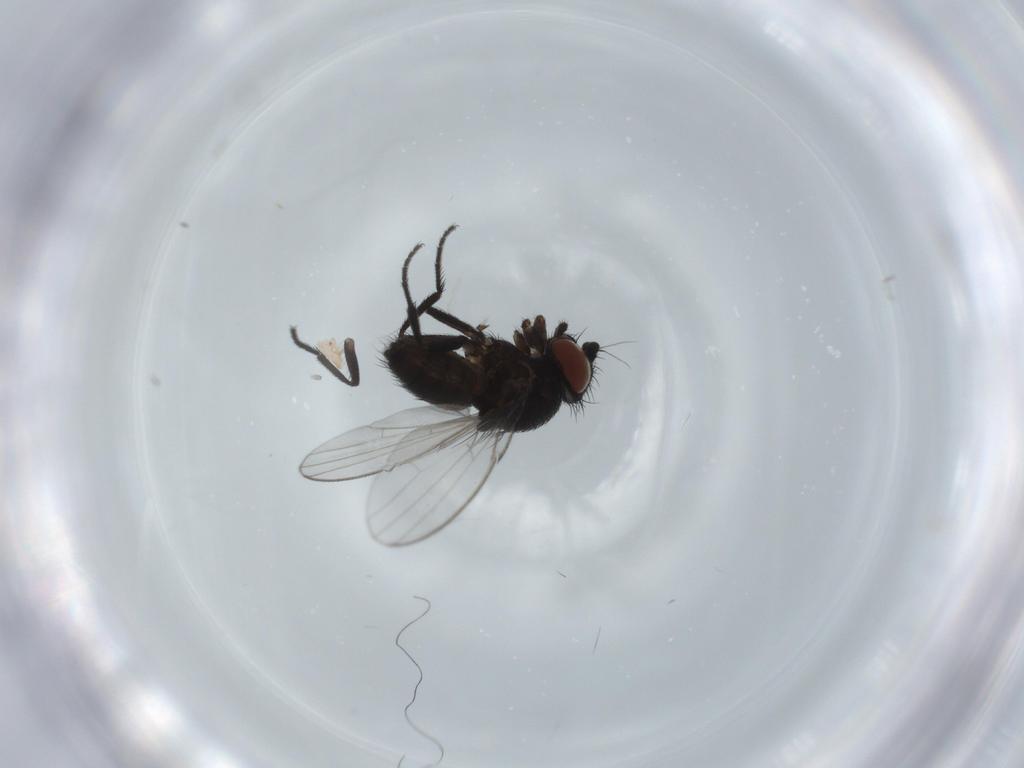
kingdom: Animalia
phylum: Arthropoda
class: Insecta
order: Diptera
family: Milichiidae
